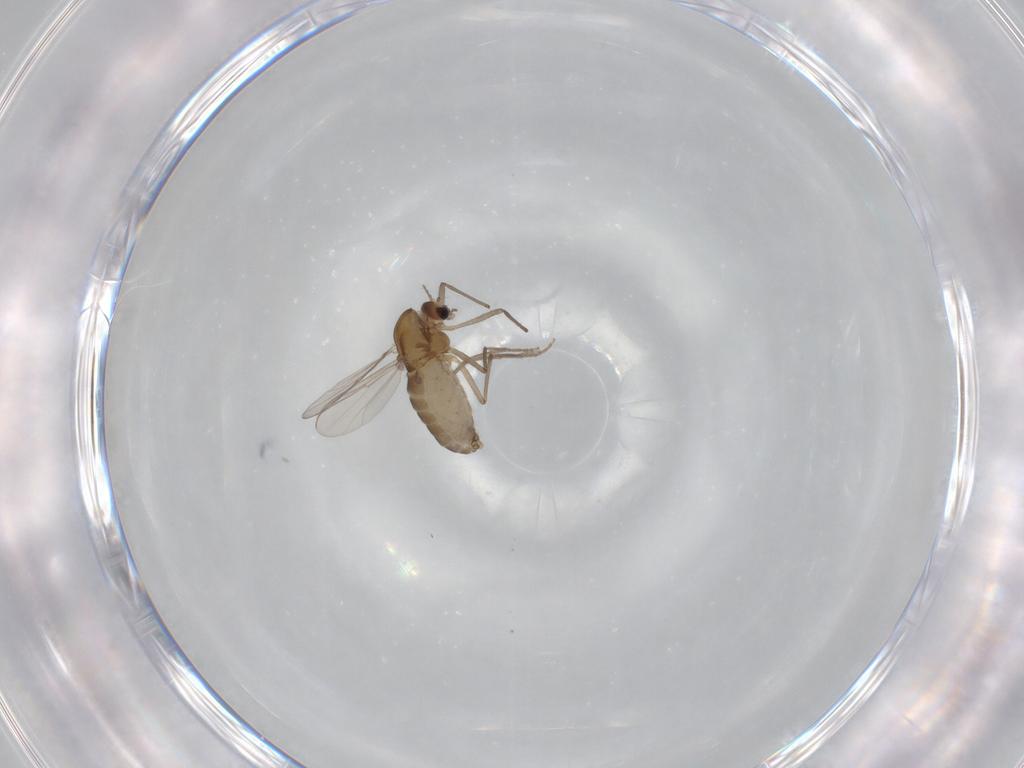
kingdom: Animalia
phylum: Arthropoda
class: Insecta
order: Diptera
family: Chironomidae
